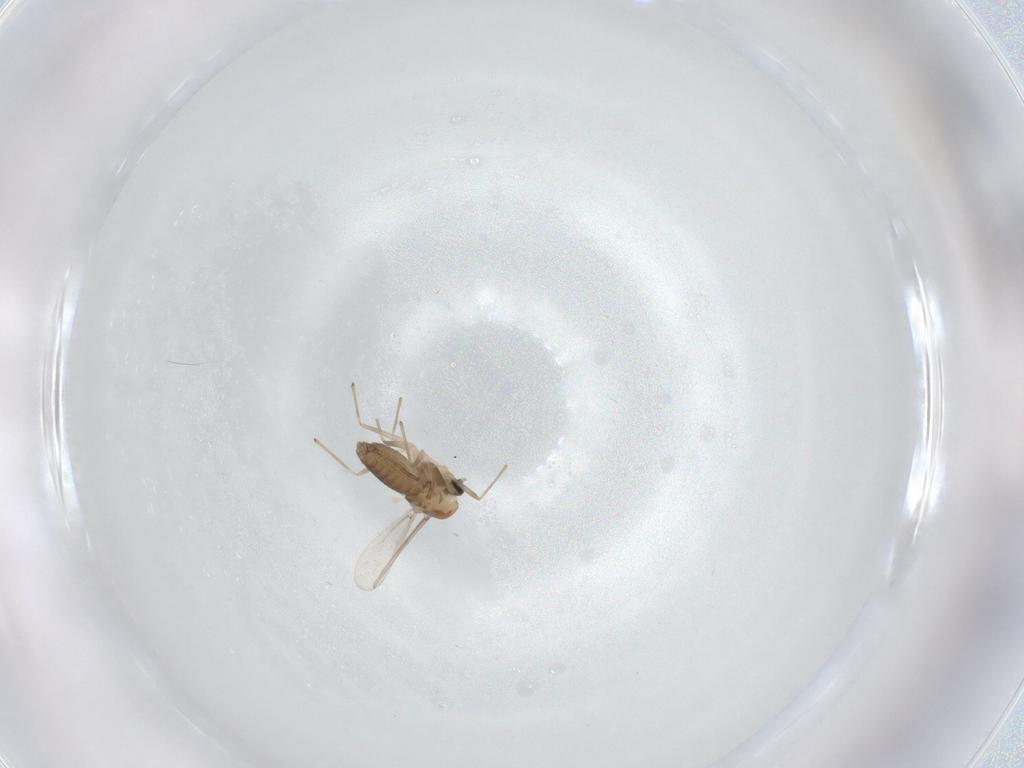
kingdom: Animalia
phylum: Arthropoda
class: Insecta
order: Diptera
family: Chironomidae
